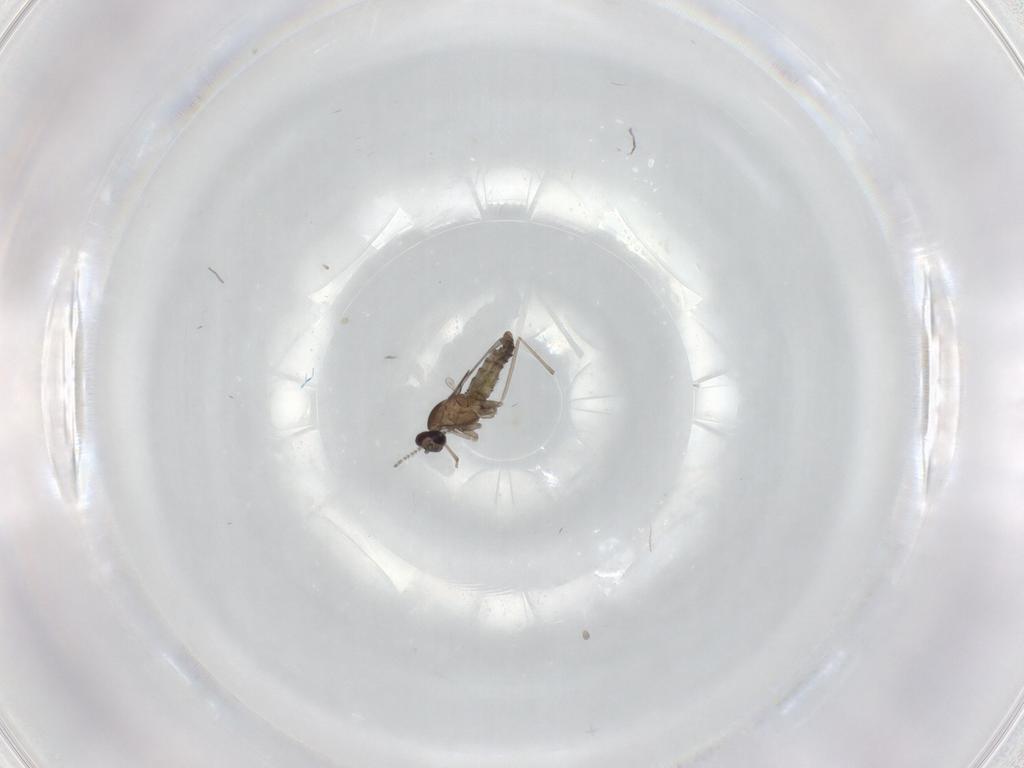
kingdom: Animalia
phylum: Arthropoda
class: Insecta
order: Diptera
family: Cecidomyiidae
